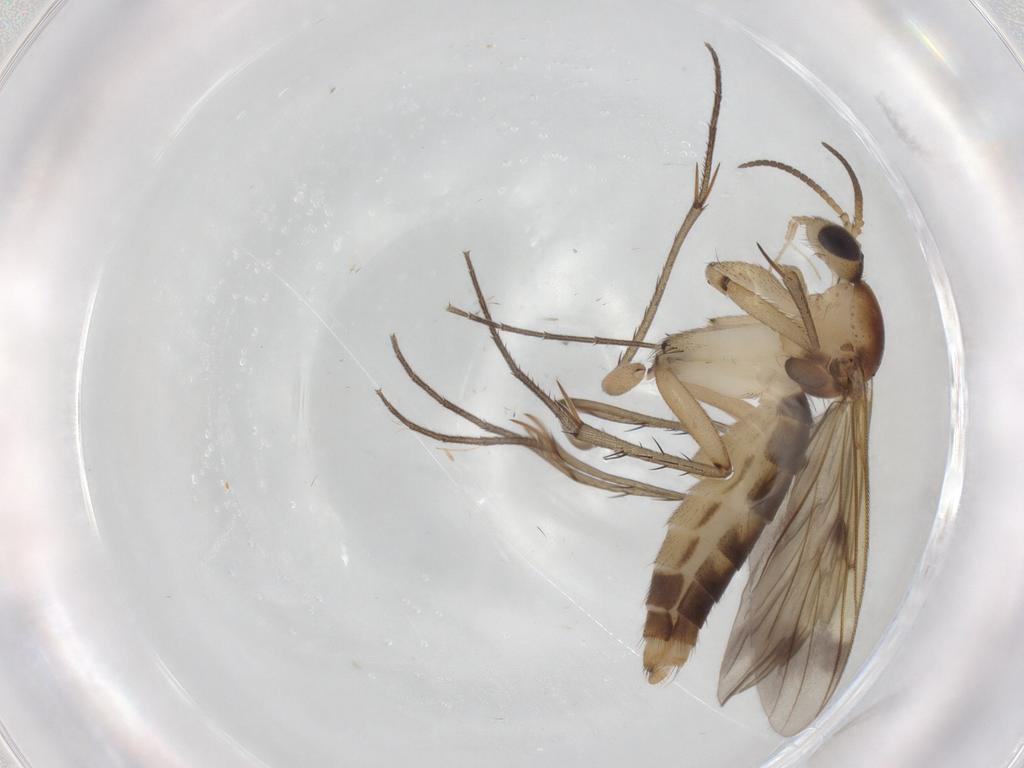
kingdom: Animalia
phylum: Arthropoda
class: Insecta
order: Diptera
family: Mycetophilidae
